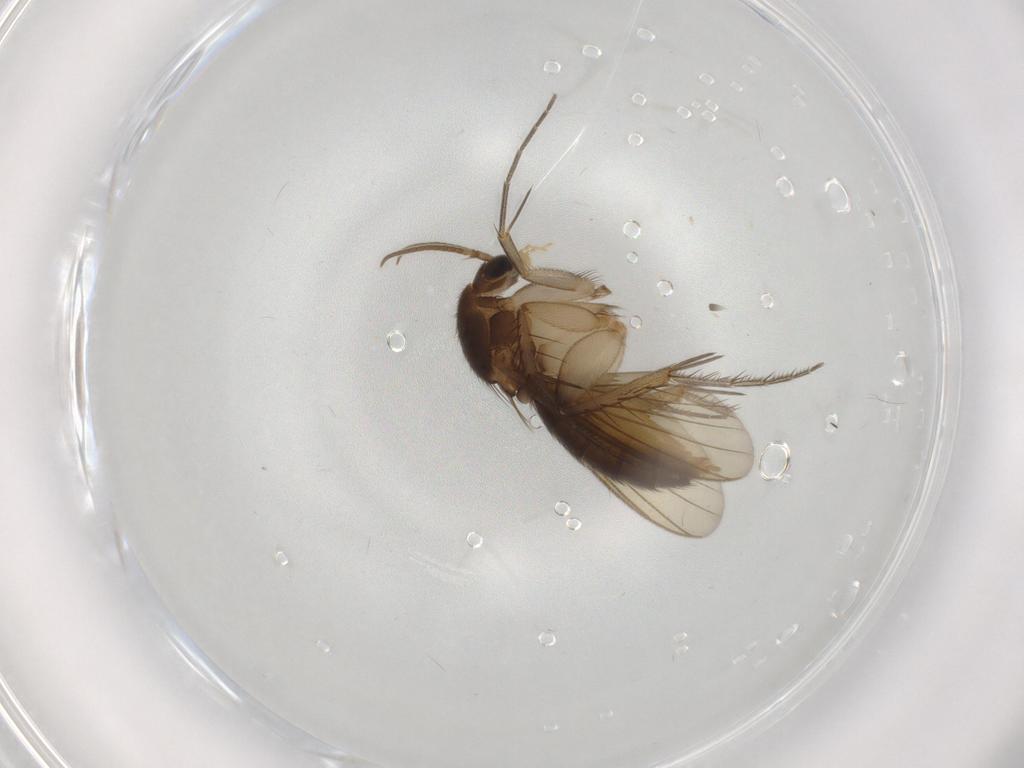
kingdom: Animalia
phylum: Arthropoda
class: Insecta
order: Diptera
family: Mycetophilidae
